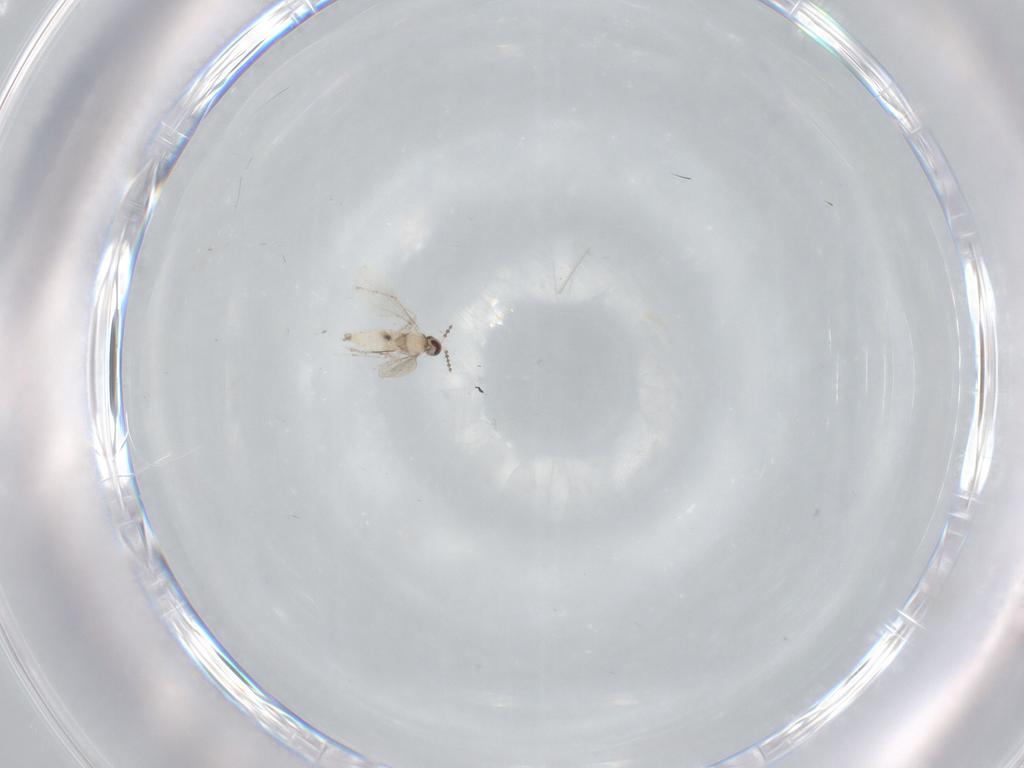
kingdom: Animalia
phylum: Arthropoda
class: Insecta
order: Diptera
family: Cecidomyiidae
